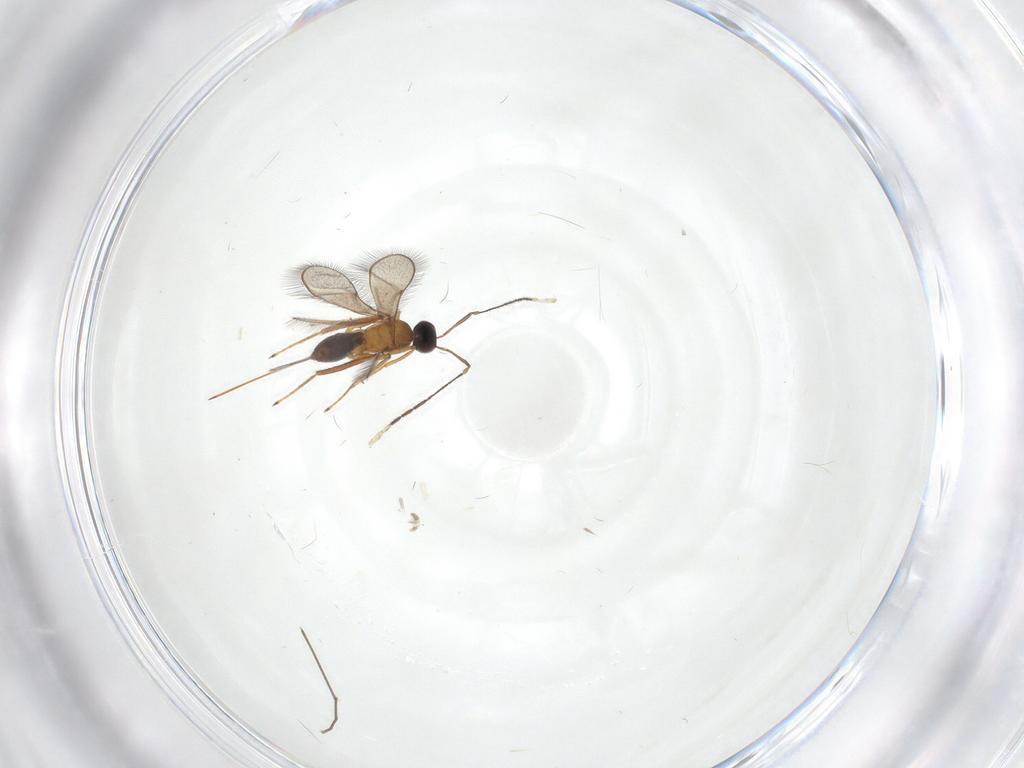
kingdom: Animalia
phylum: Arthropoda
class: Insecta
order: Hymenoptera
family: Mymaridae
